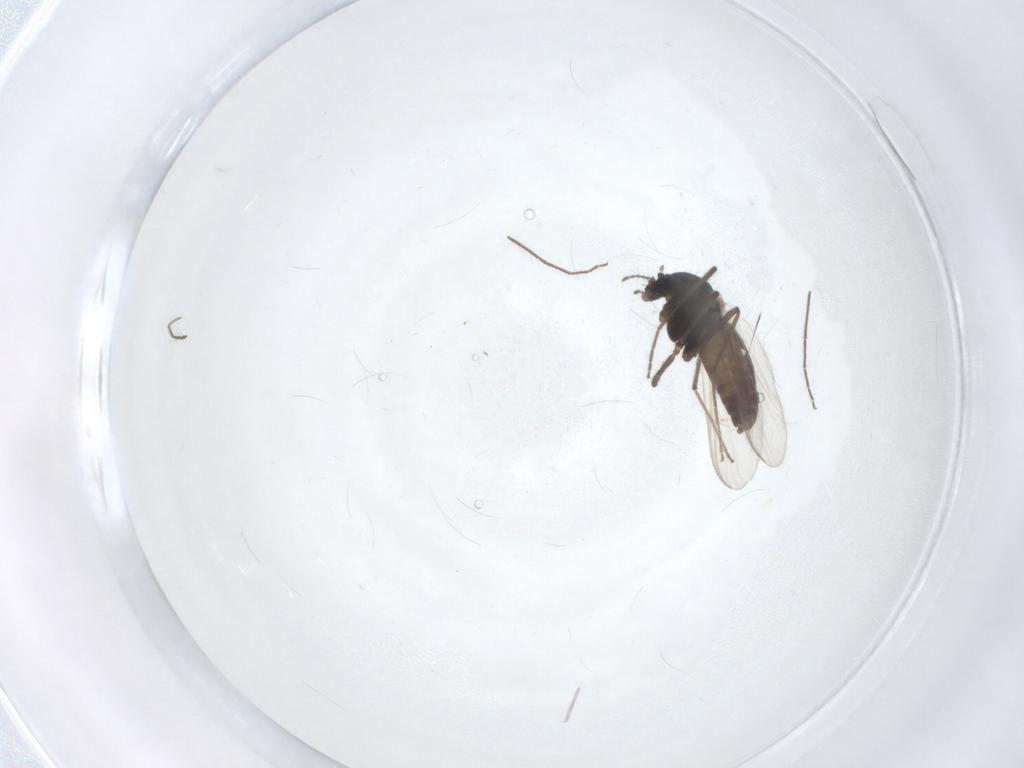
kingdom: Animalia
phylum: Arthropoda
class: Insecta
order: Diptera
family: Chironomidae
